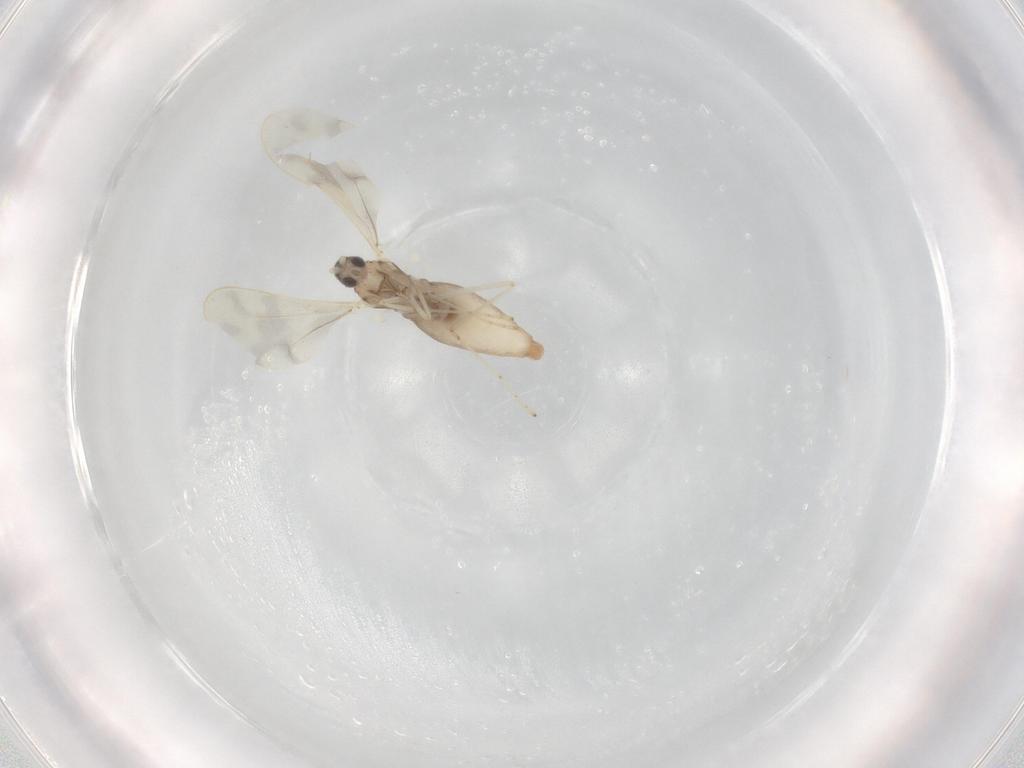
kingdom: Animalia
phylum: Arthropoda
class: Insecta
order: Diptera
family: Cecidomyiidae
